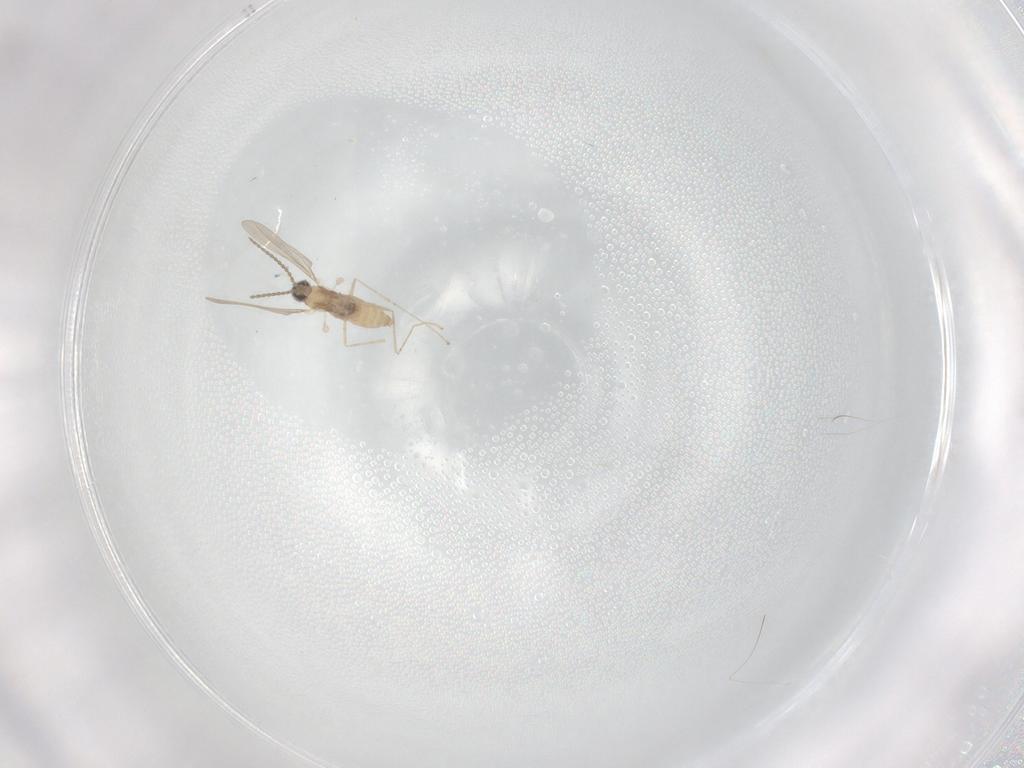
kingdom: Animalia
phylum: Arthropoda
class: Insecta
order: Diptera
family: Cecidomyiidae
